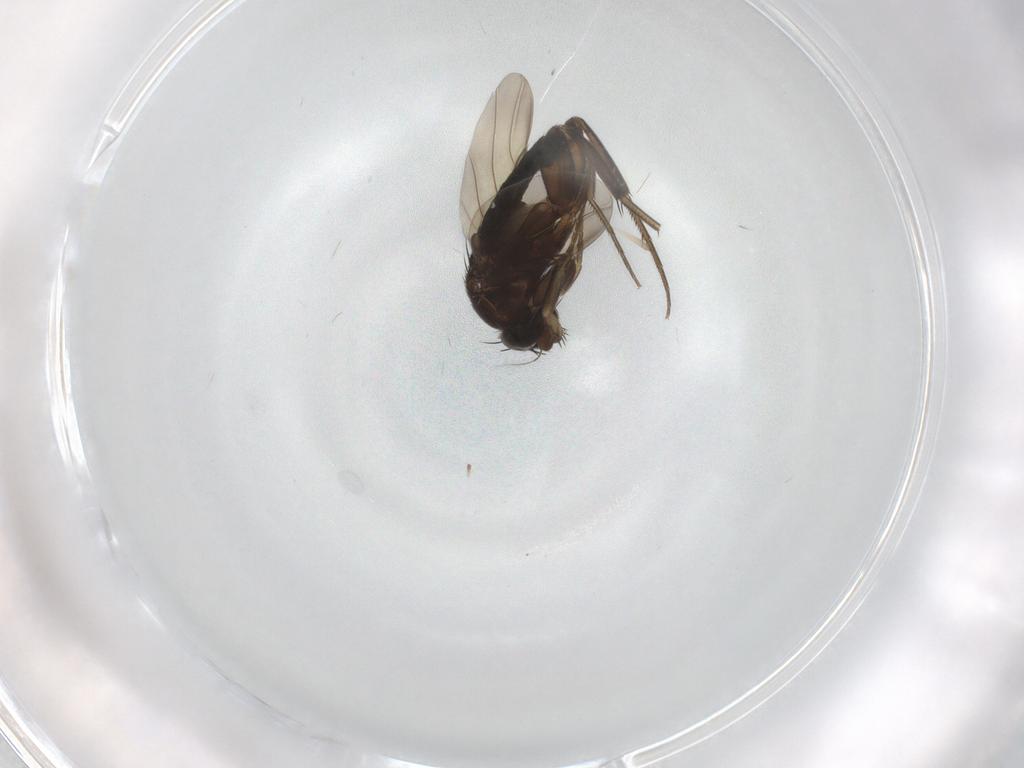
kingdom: Animalia
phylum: Arthropoda
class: Insecta
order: Diptera
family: Phoridae
